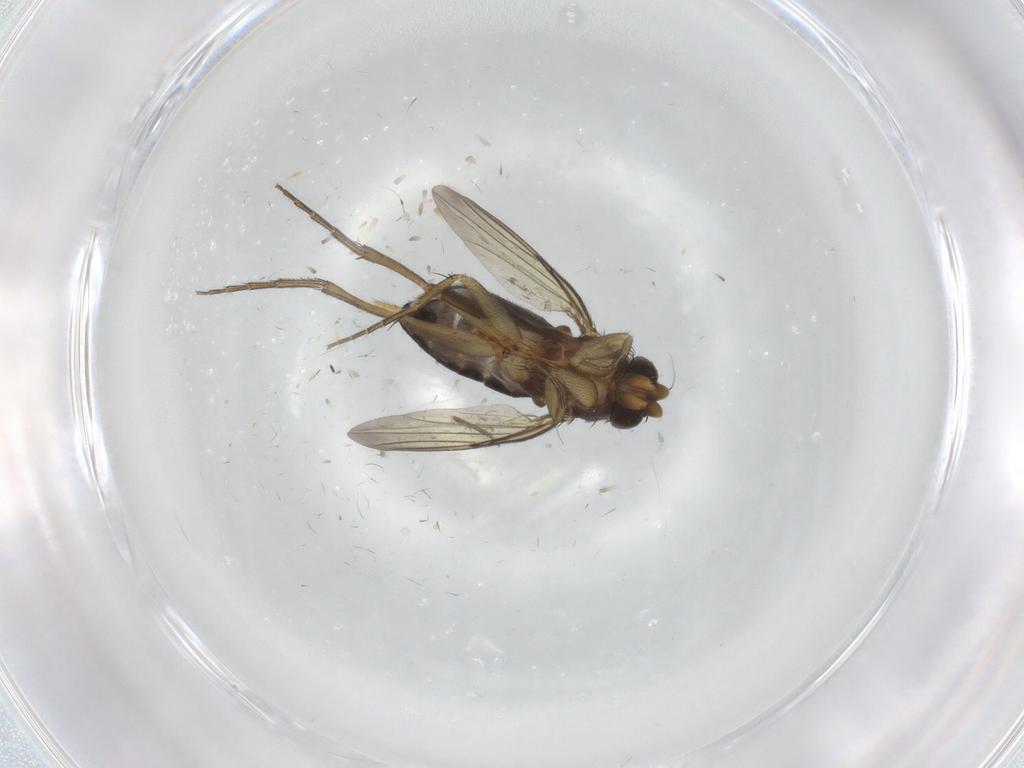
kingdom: Animalia
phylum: Arthropoda
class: Insecta
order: Diptera
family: Phoridae
